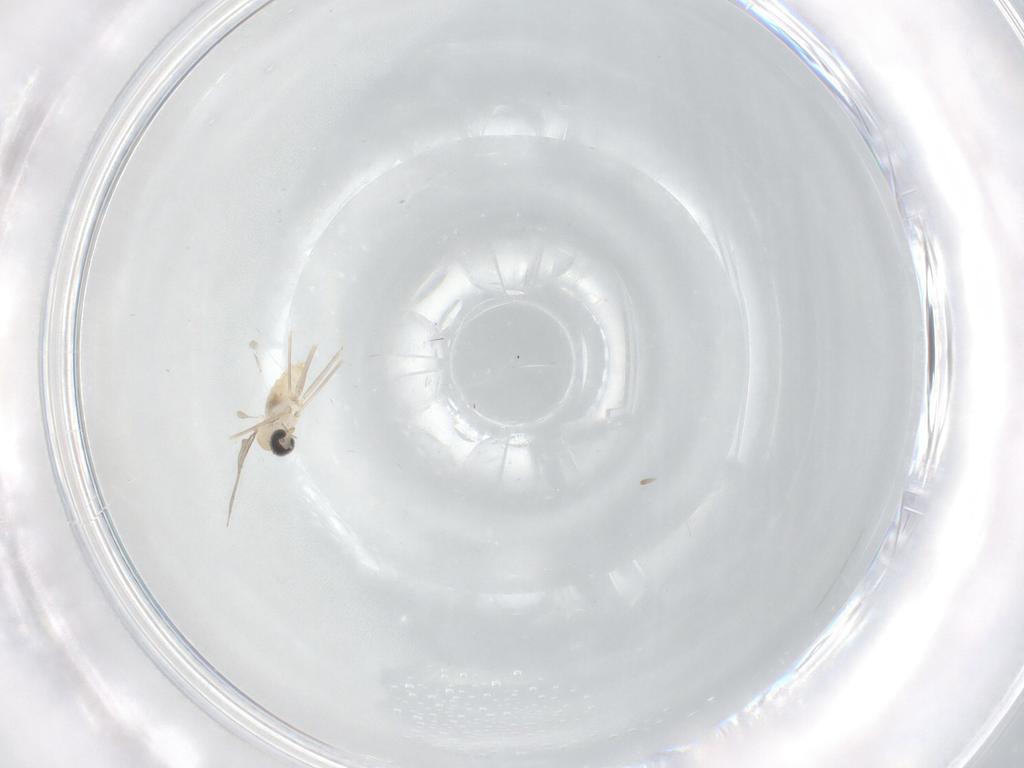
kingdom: Animalia
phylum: Arthropoda
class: Insecta
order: Diptera
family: Cecidomyiidae
